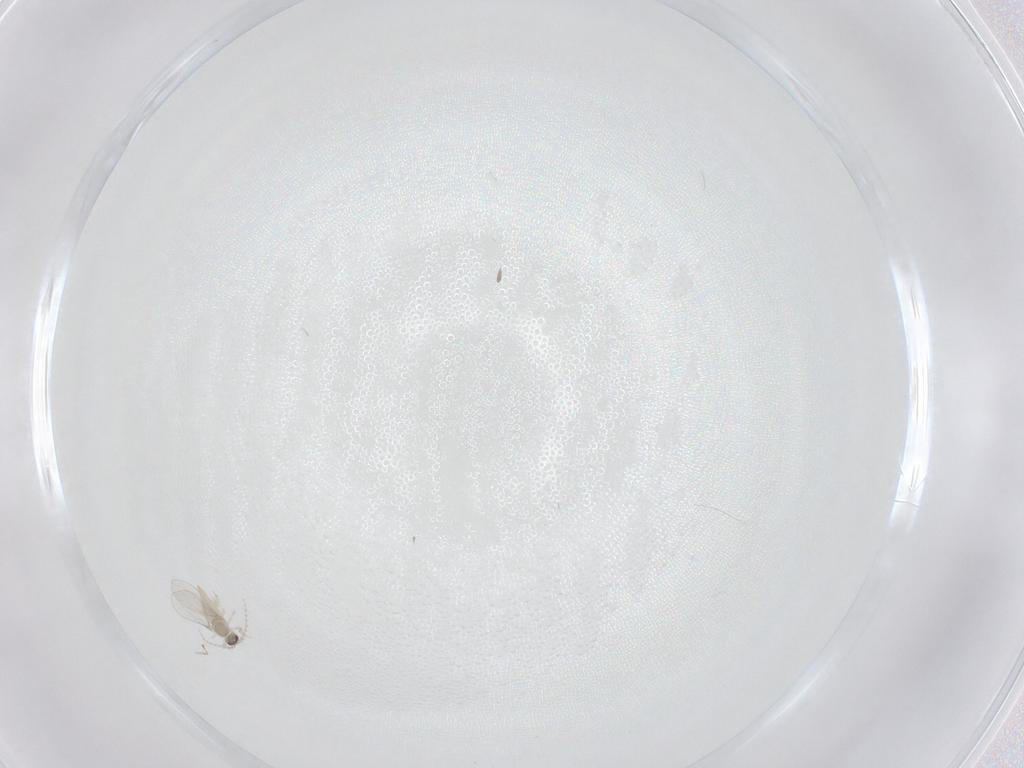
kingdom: Animalia
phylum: Arthropoda
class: Insecta
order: Diptera
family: Cecidomyiidae
